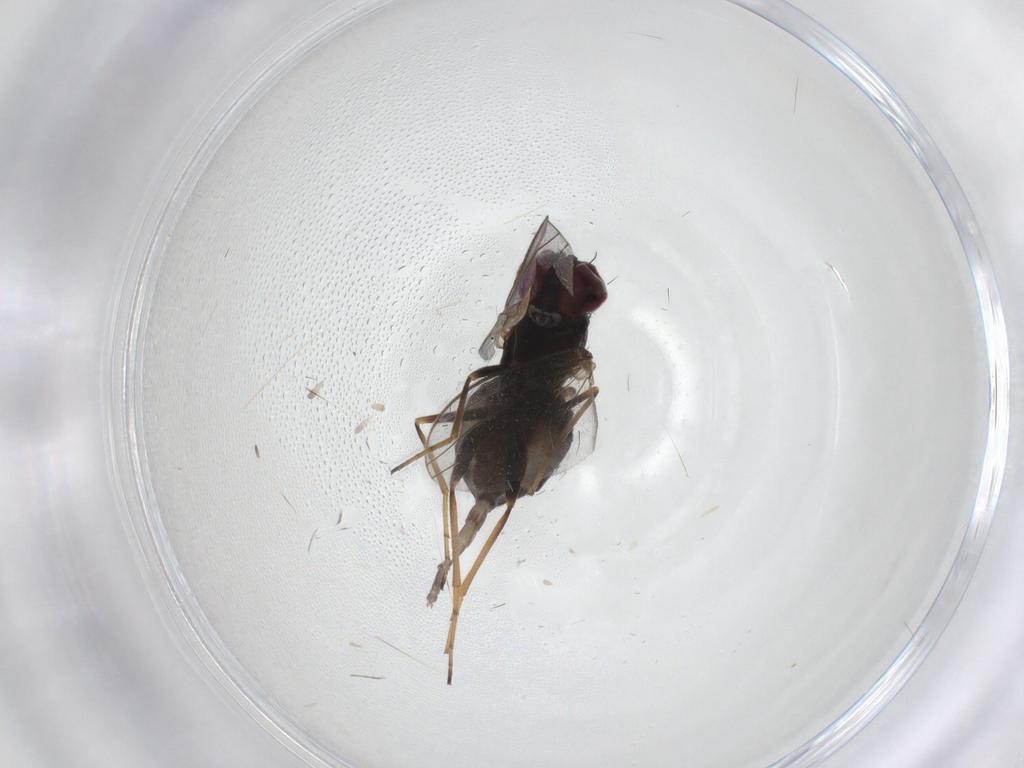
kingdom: Animalia
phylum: Arthropoda
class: Insecta
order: Diptera
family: Dolichopodidae
